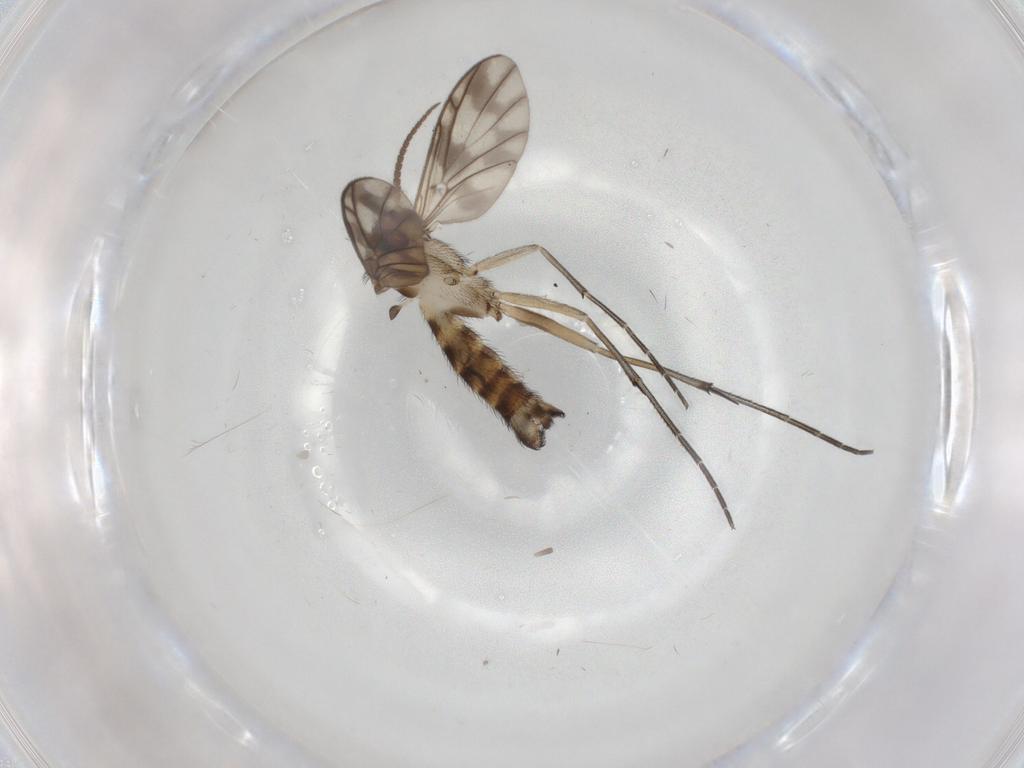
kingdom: Animalia
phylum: Arthropoda
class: Insecta
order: Diptera
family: Keroplatidae
